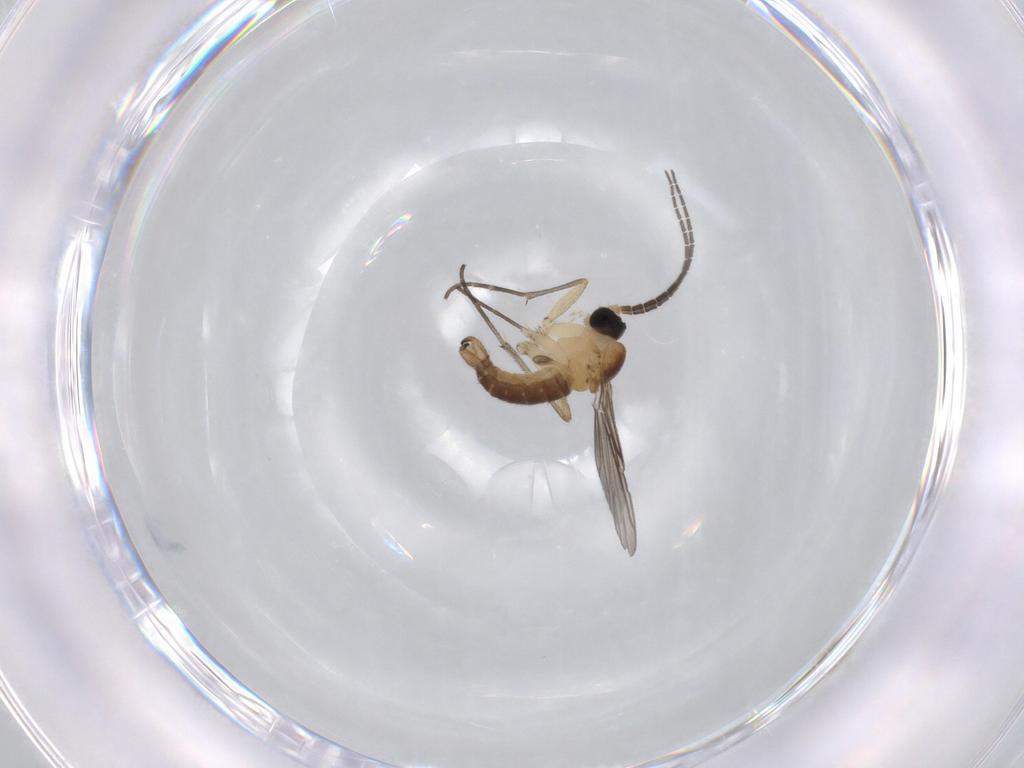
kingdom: Animalia
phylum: Arthropoda
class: Insecta
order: Diptera
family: Sciaridae
